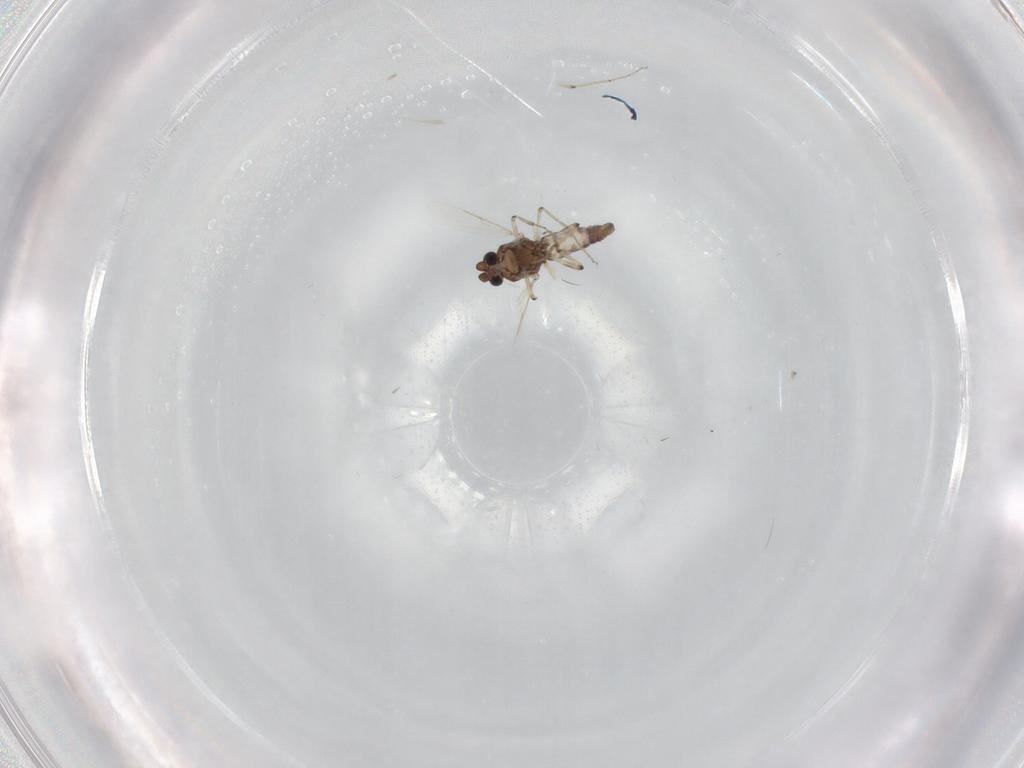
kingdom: Animalia
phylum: Arthropoda
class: Insecta
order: Diptera
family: Ceratopogonidae
